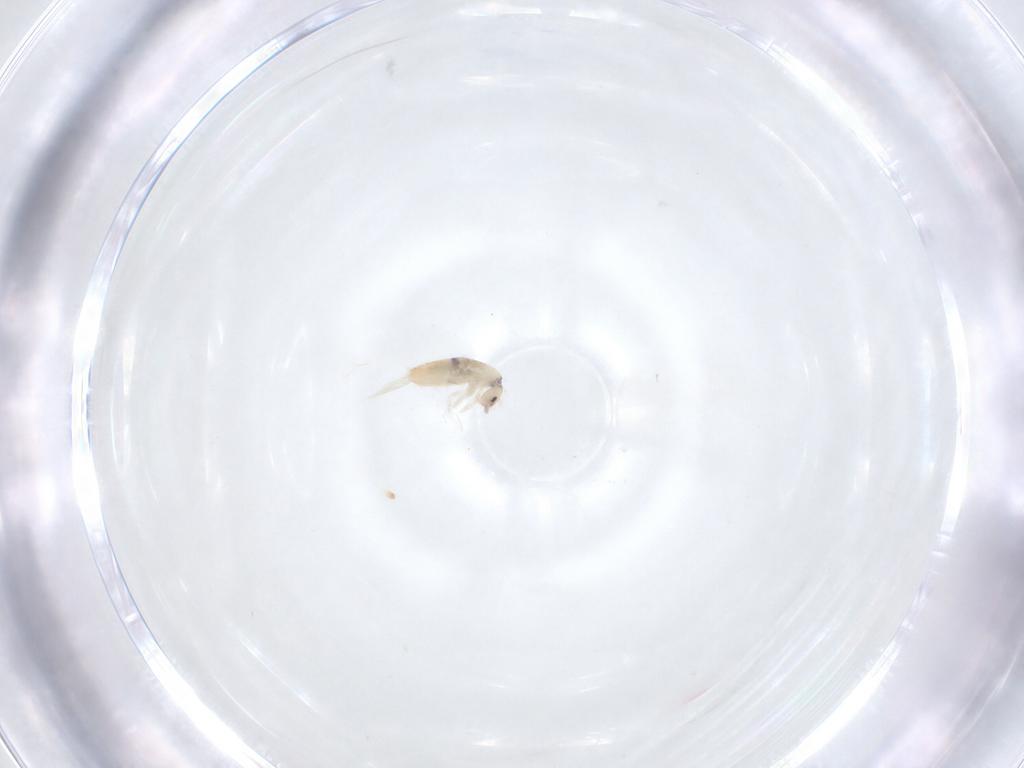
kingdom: Animalia
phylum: Arthropoda
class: Collembola
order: Entomobryomorpha
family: Entomobryidae
